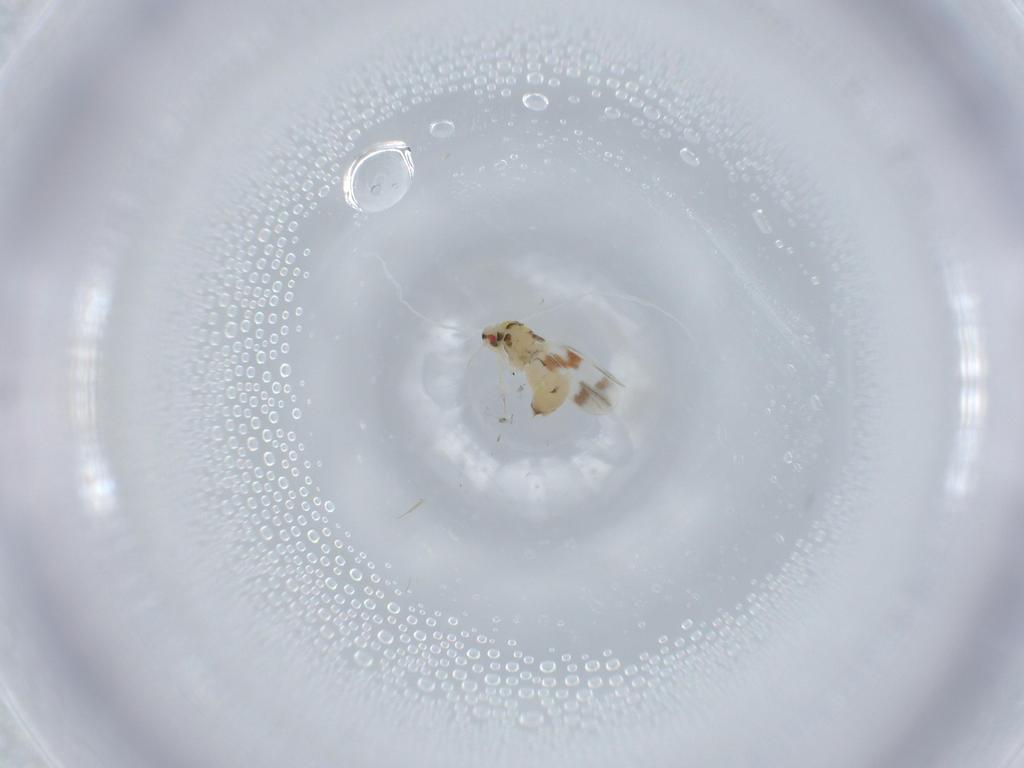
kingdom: Animalia
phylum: Arthropoda
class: Insecta
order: Hemiptera
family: Aleyrodidae
